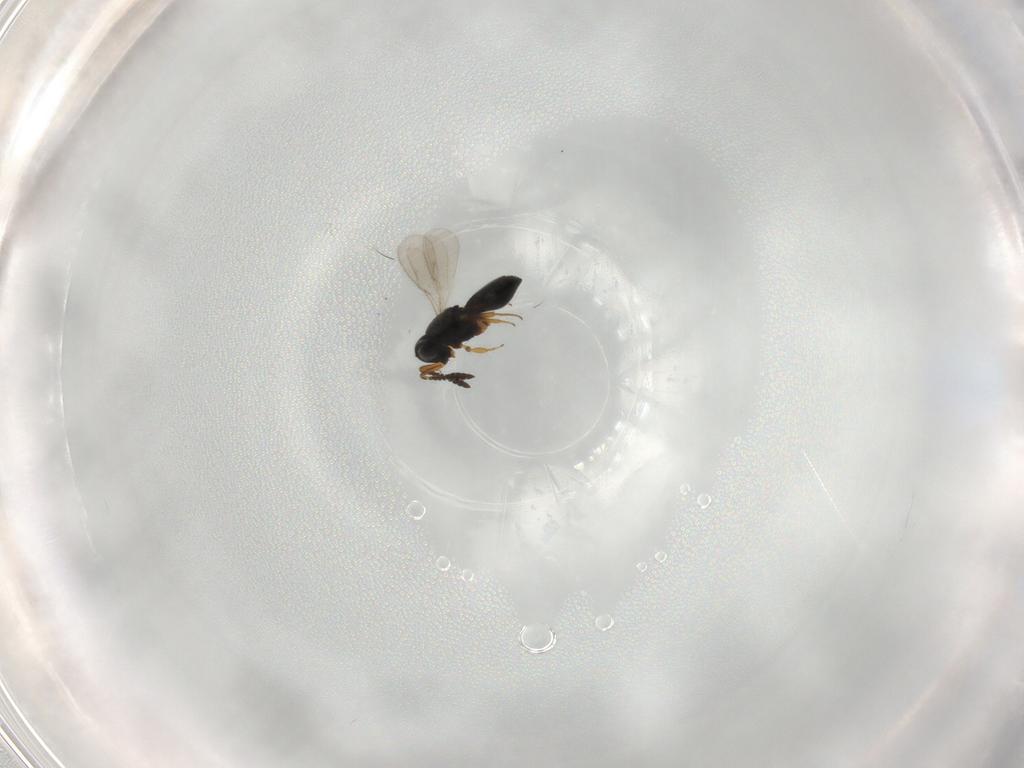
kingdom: Animalia
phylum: Arthropoda
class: Insecta
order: Hymenoptera
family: Scelionidae
